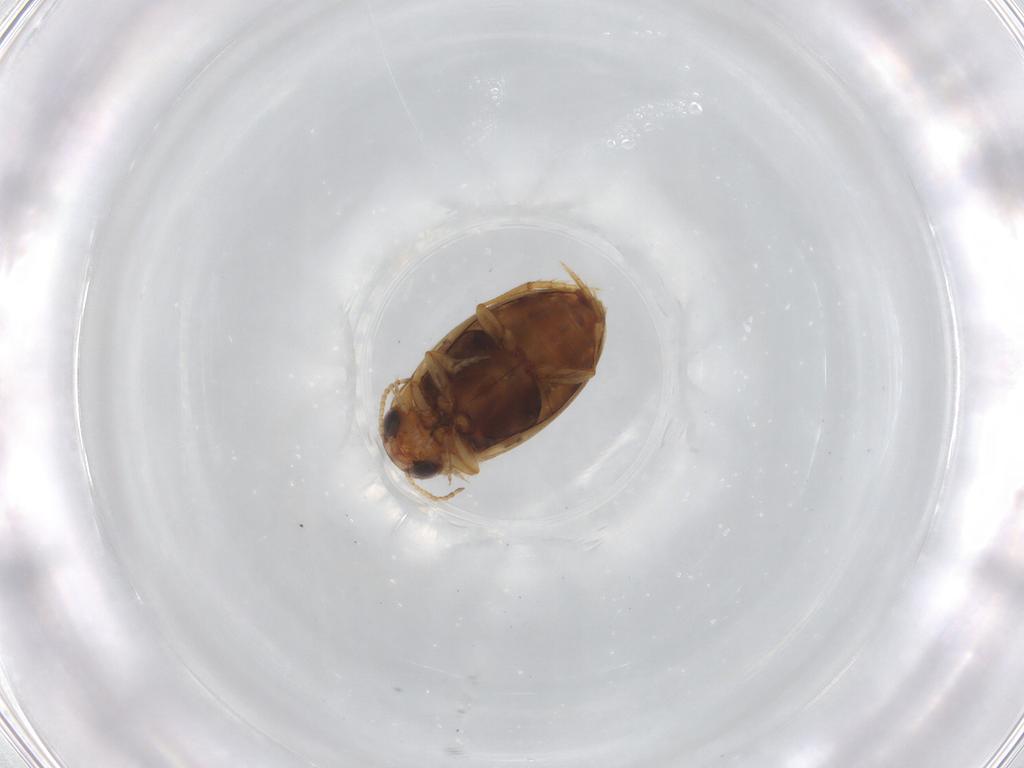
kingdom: Animalia
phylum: Arthropoda
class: Insecta
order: Coleoptera
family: Dytiscidae
